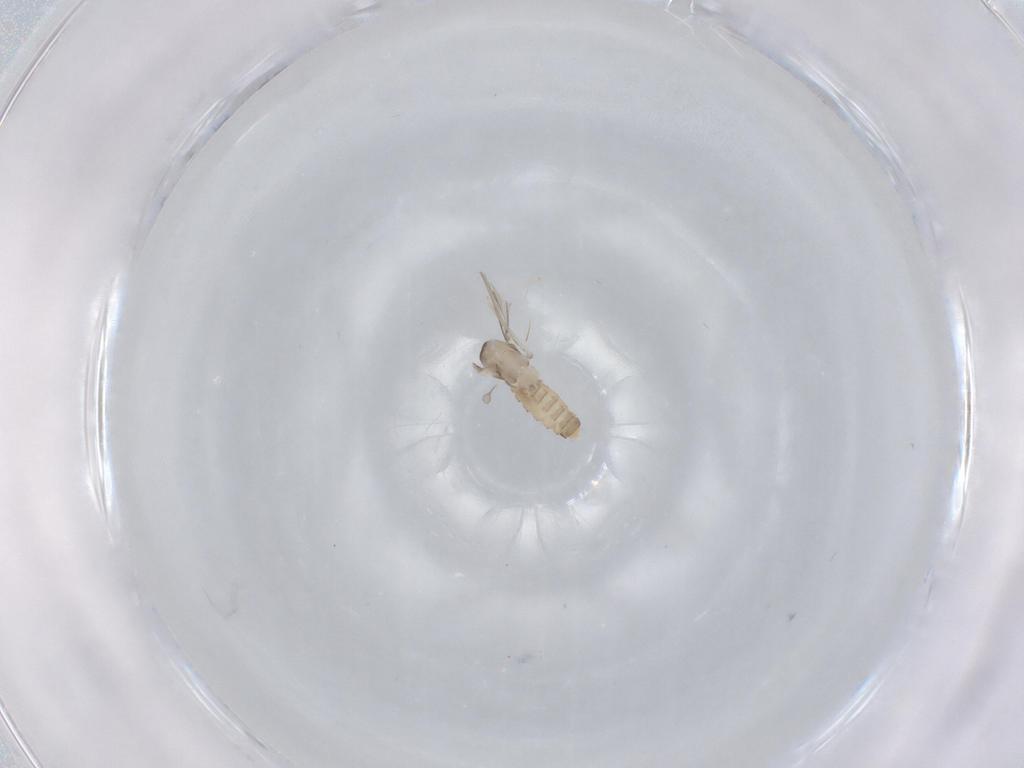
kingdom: Animalia
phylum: Arthropoda
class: Insecta
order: Diptera
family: Cecidomyiidae
